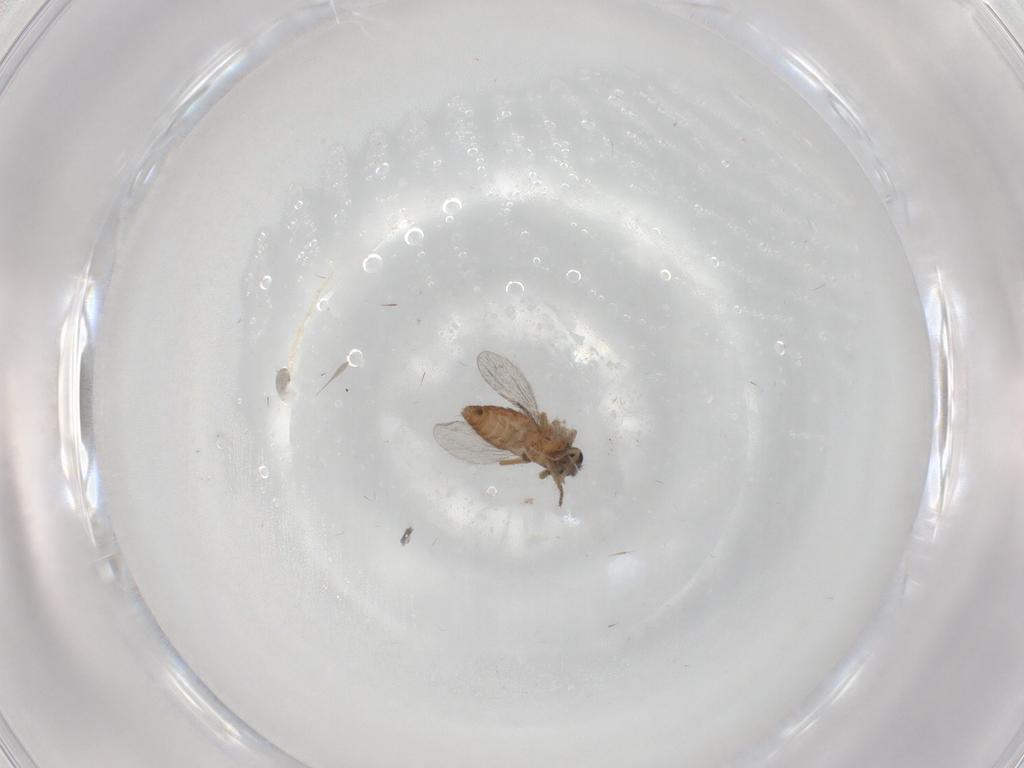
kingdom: Animalia
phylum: Arthropoda
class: Insecta
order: Diptera
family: Ceratopogonidae
